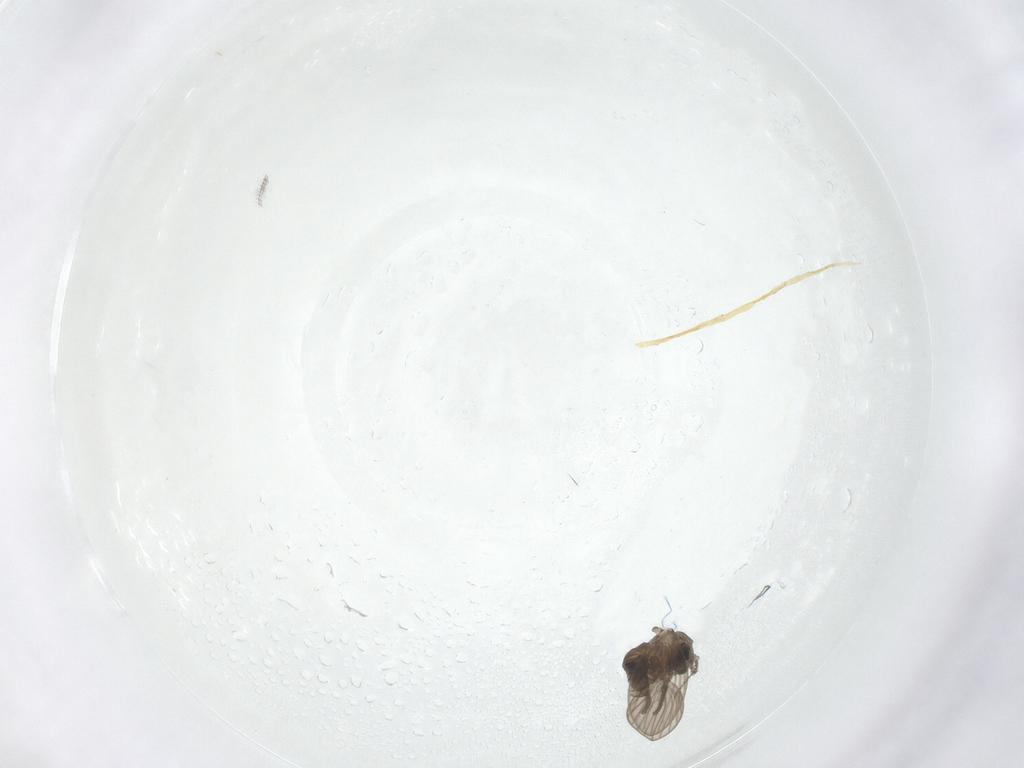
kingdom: Animalia
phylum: Arthropoda
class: Insecta
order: Diptera
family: Psychodidae
